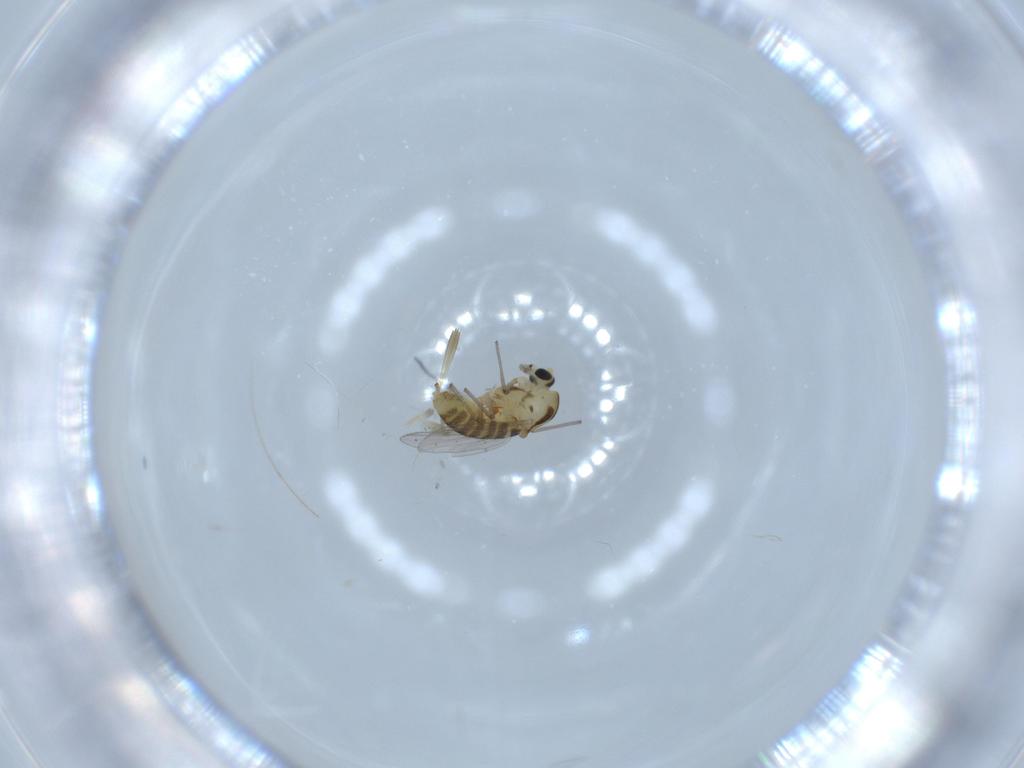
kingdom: Animalia
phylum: Arthropoda
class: Insecta
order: Diptera
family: Chironomidae
